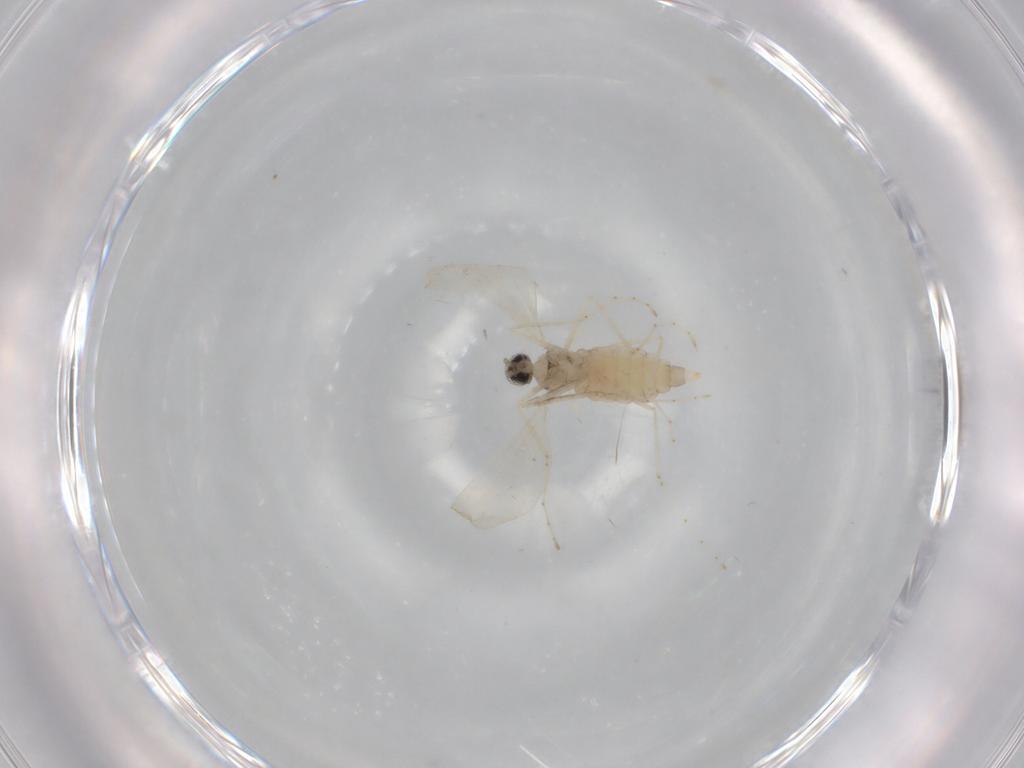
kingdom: Animalia
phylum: Arthropoda
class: Insecta
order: Diptera
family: Cecidomyiidae
